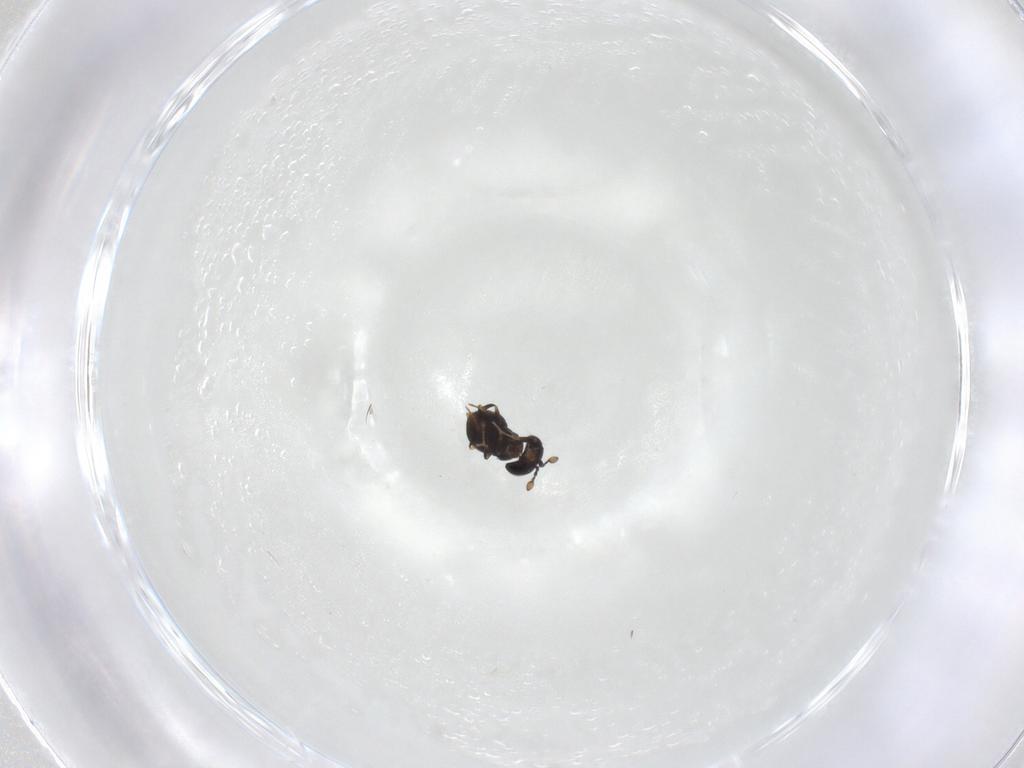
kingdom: Animalia
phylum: Arthropoda
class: Insecta
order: Hymenoptera
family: Scelionidae
